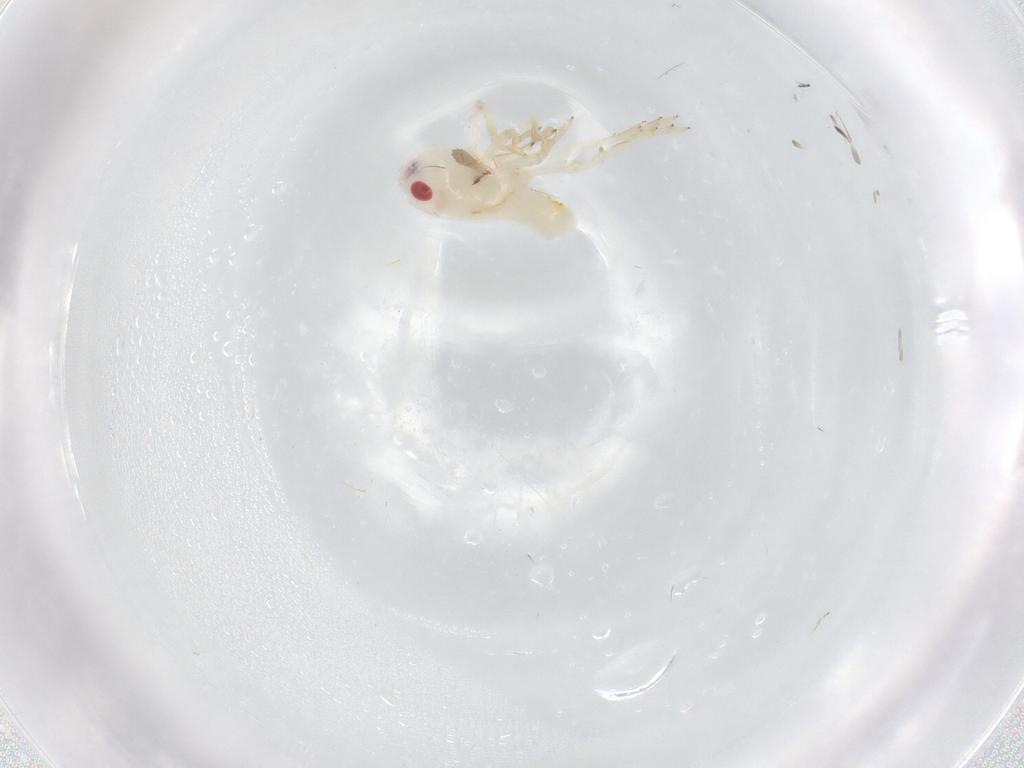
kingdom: Animalia
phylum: Arthropoda
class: Insecta
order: Hemiptera
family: Tropiduchidae
